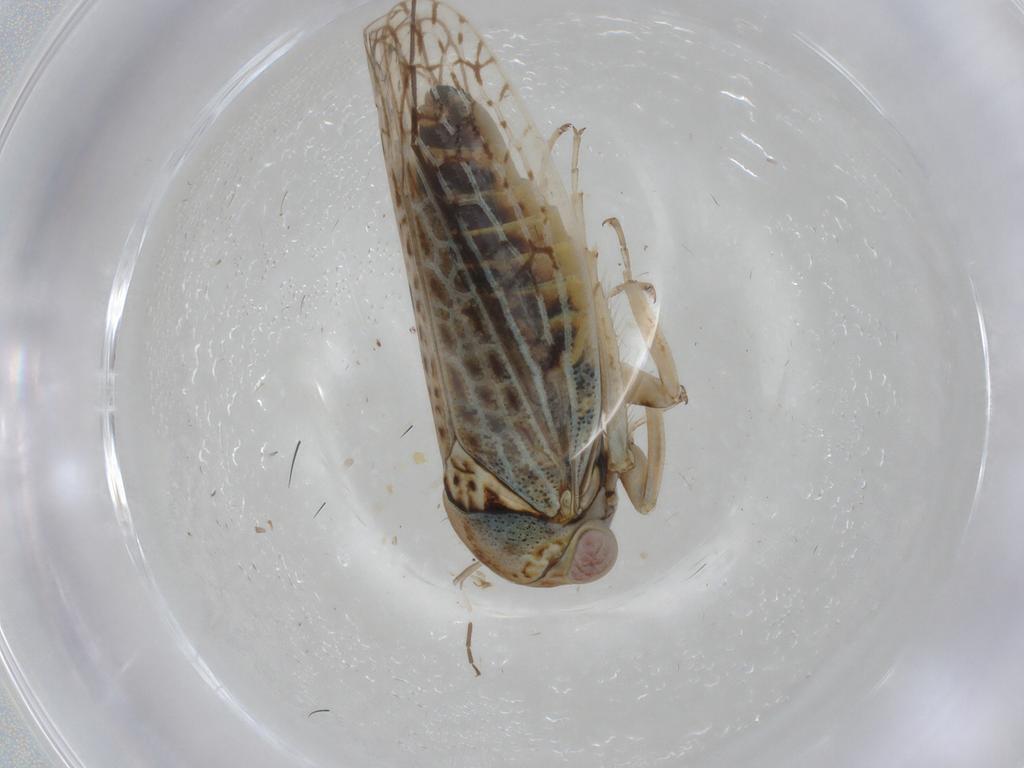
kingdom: Animalia
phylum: Arthropoda
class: Insecta
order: Hemiptera
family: Cicadellidae
